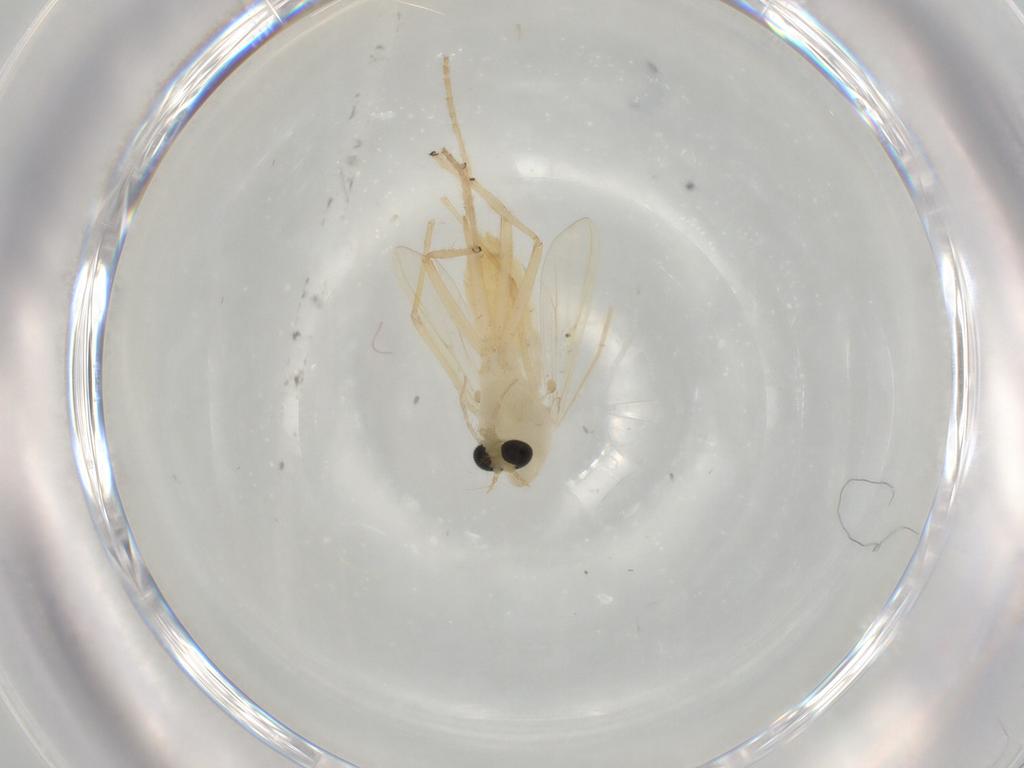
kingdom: Animalia
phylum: Arthropoda
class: Insecta
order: Diptera
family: Chironomidae
